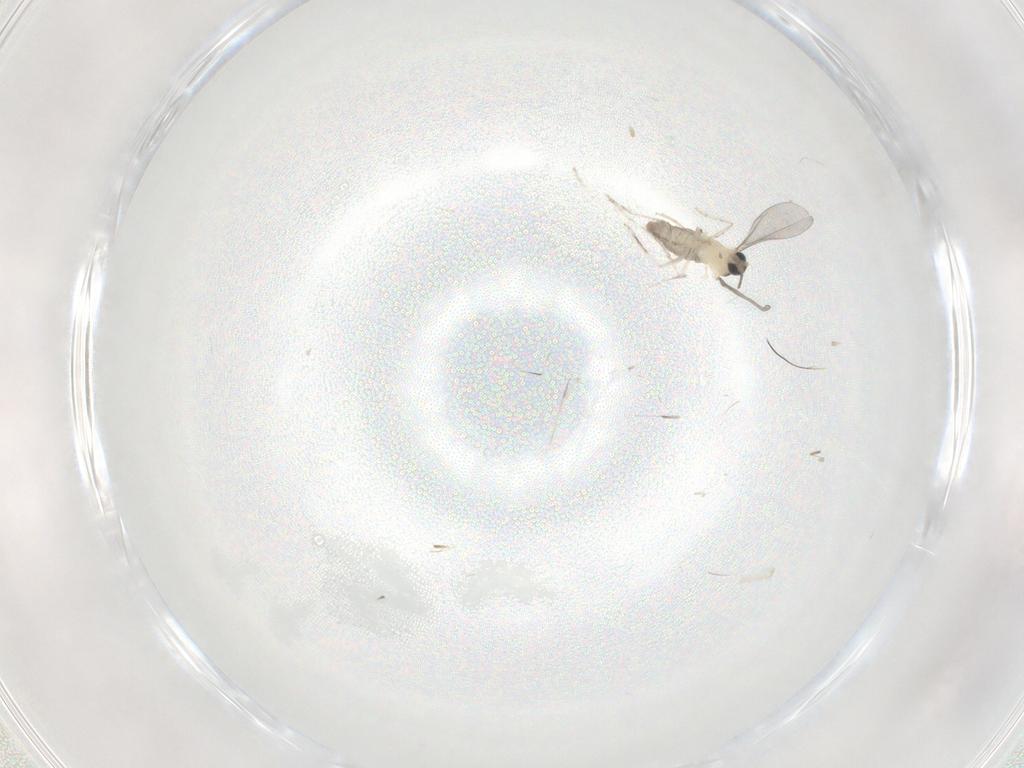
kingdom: Animalia
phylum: Arthropoda
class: Insecta
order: Diptera
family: Cecidomyiidae
